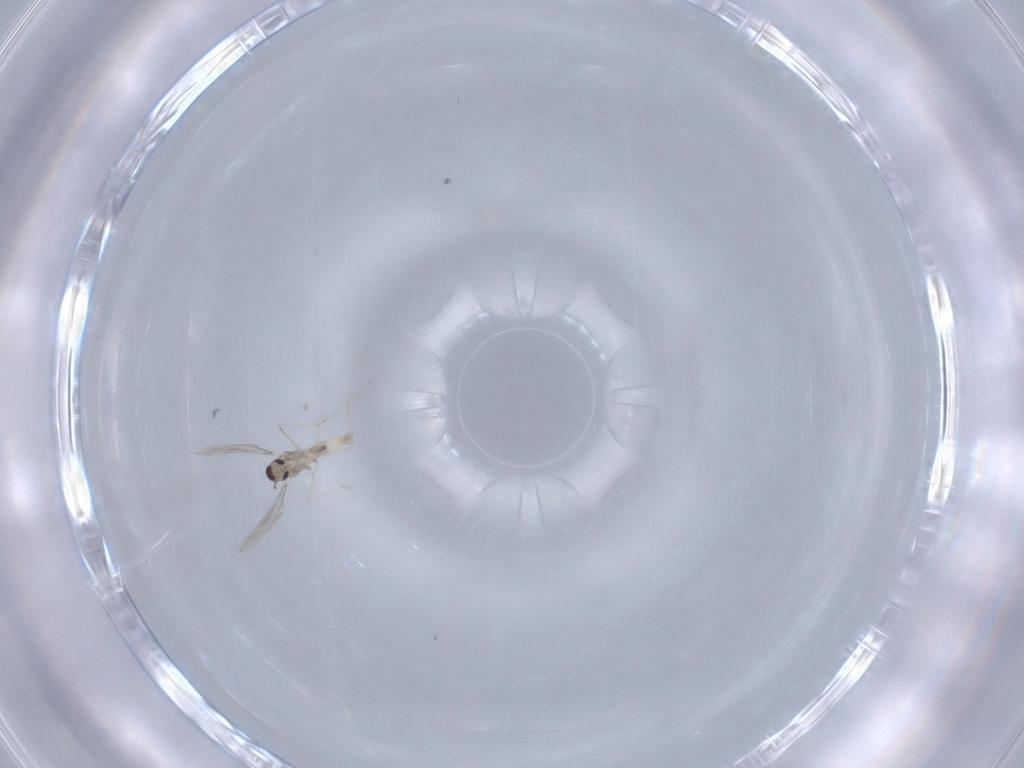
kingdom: Animalia
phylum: Arthropoda
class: Insecta
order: Diptera
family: Cecidomyiidae
